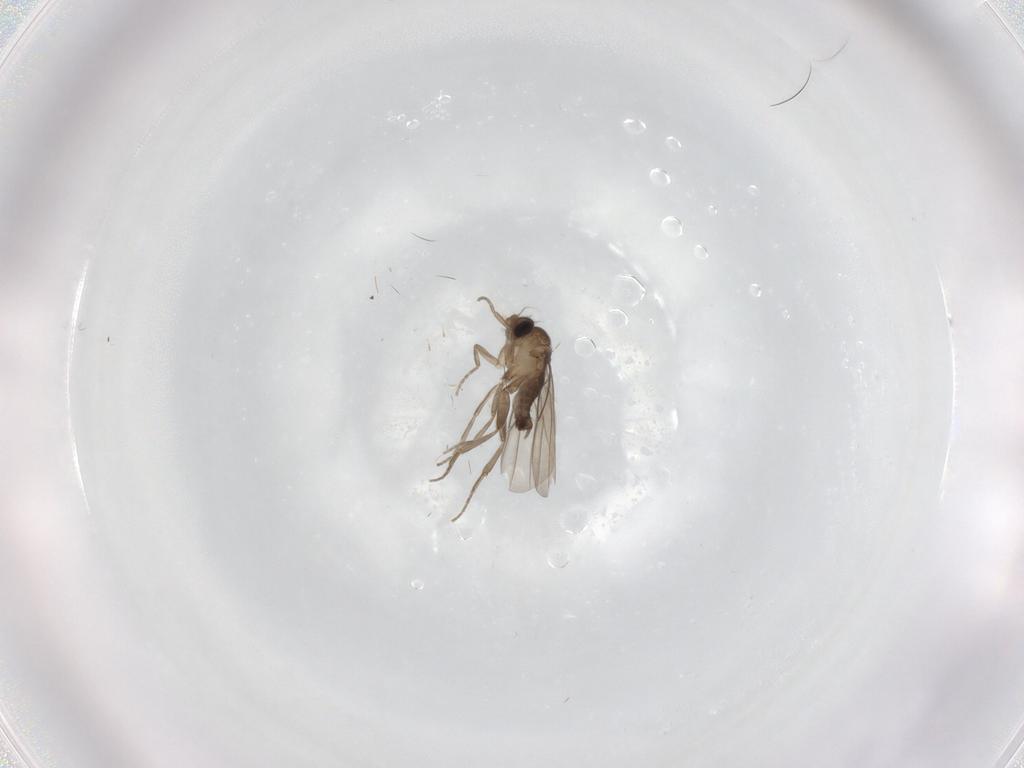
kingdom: Animalia
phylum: Arthropoda
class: Insecta
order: Diptera
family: Phoridae
